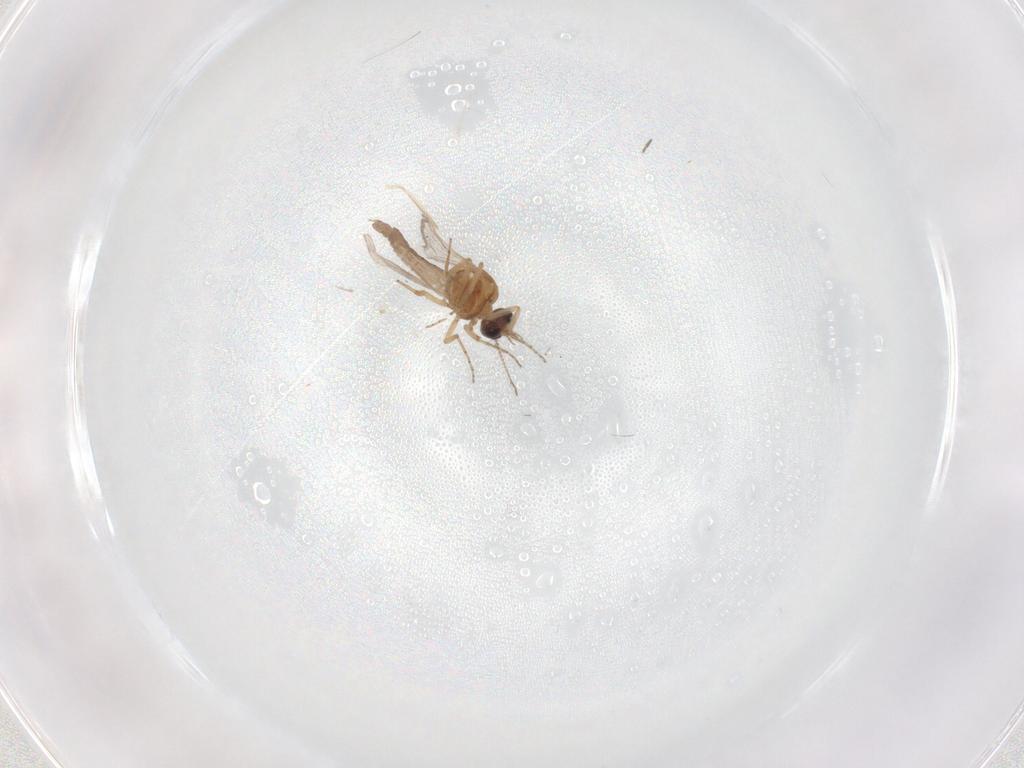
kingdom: Animalia
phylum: Arthropoda
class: Insecta
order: Diptera
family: Chironomidae
